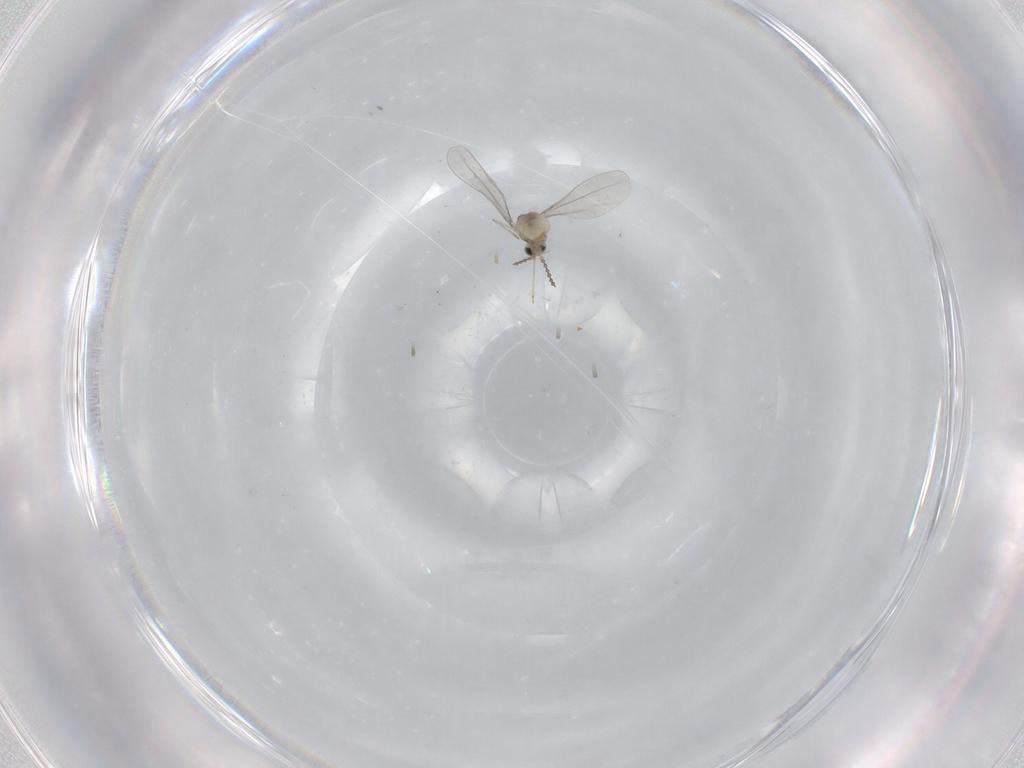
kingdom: Animalia
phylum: Arthropoda
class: Insecta
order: Diptera
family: Cecidomyiidae
